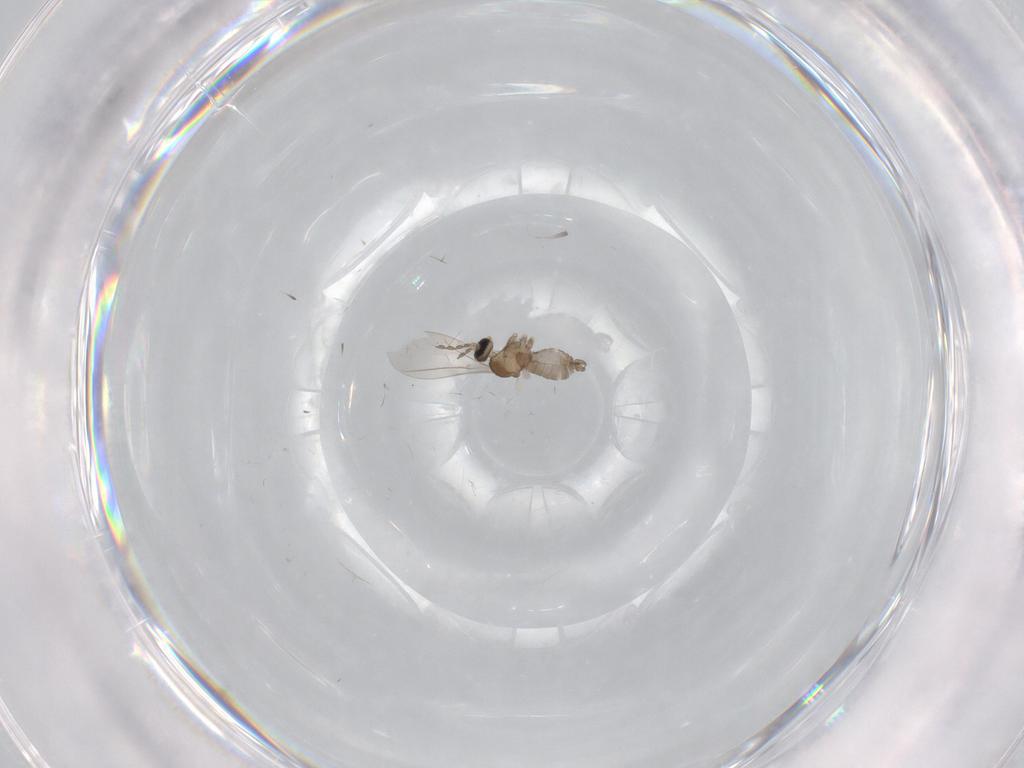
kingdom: Animalia
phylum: Arthropoda
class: Insecta
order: Diptera
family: Cecidomyiidae
